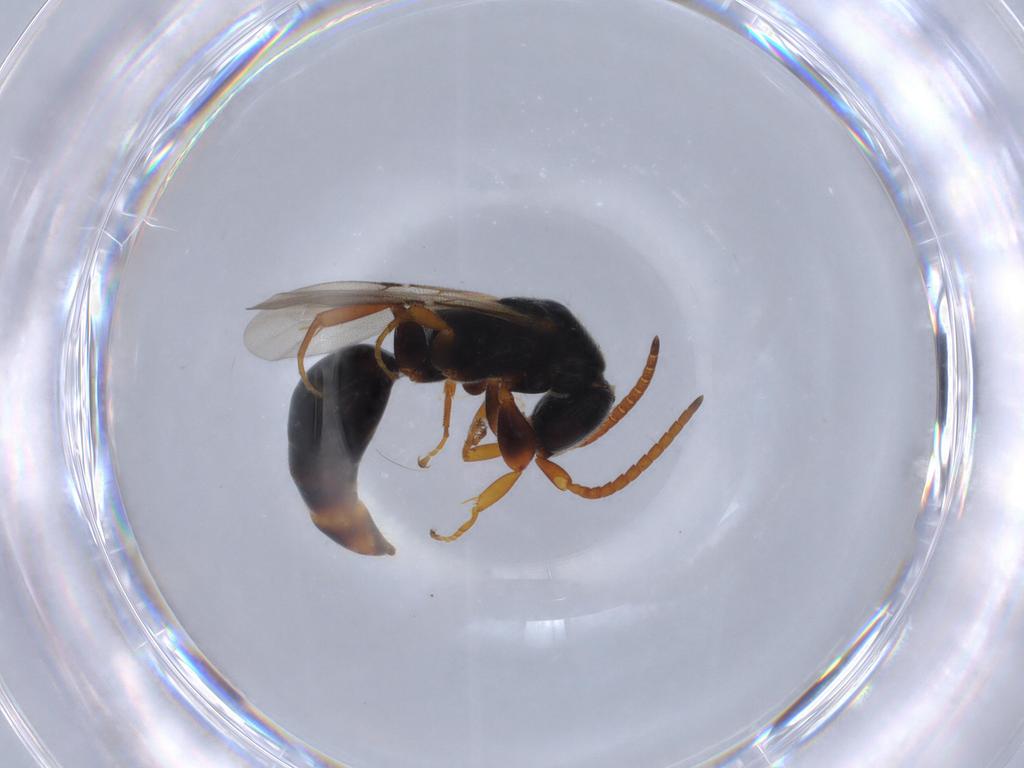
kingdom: Animalia
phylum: Arthropoda
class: Insecta
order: Hymenoptera
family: Bethylidae
